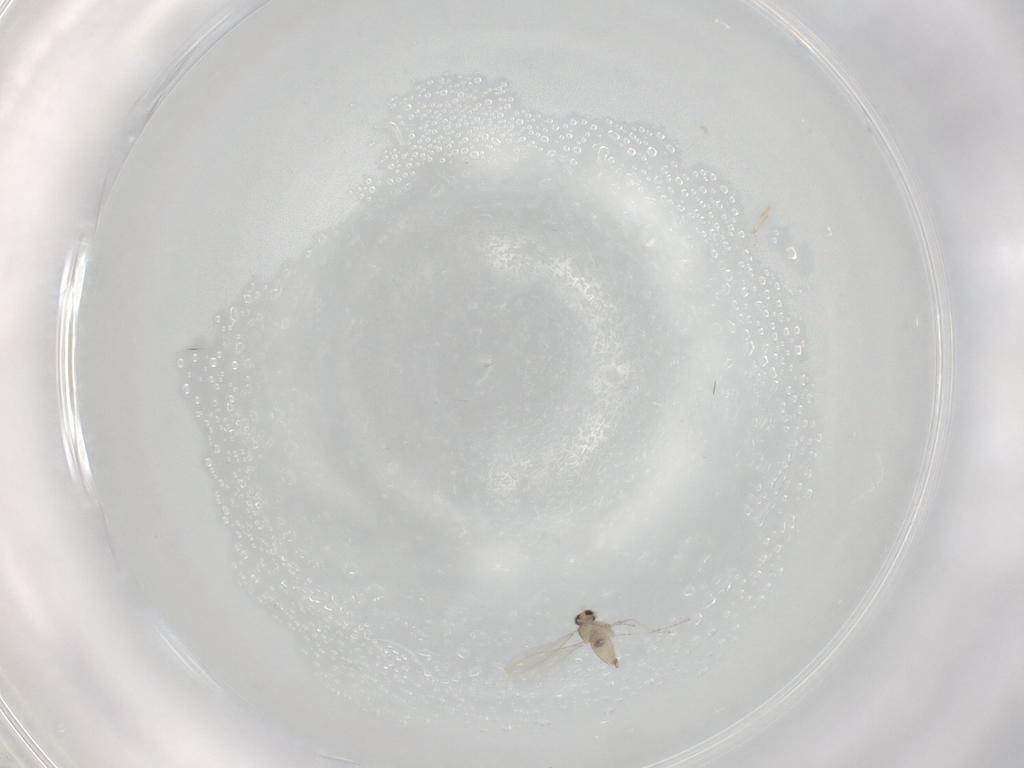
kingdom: Animalia
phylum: Arthropoda
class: Insecta
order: Diptera
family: Cecidomyiidae
